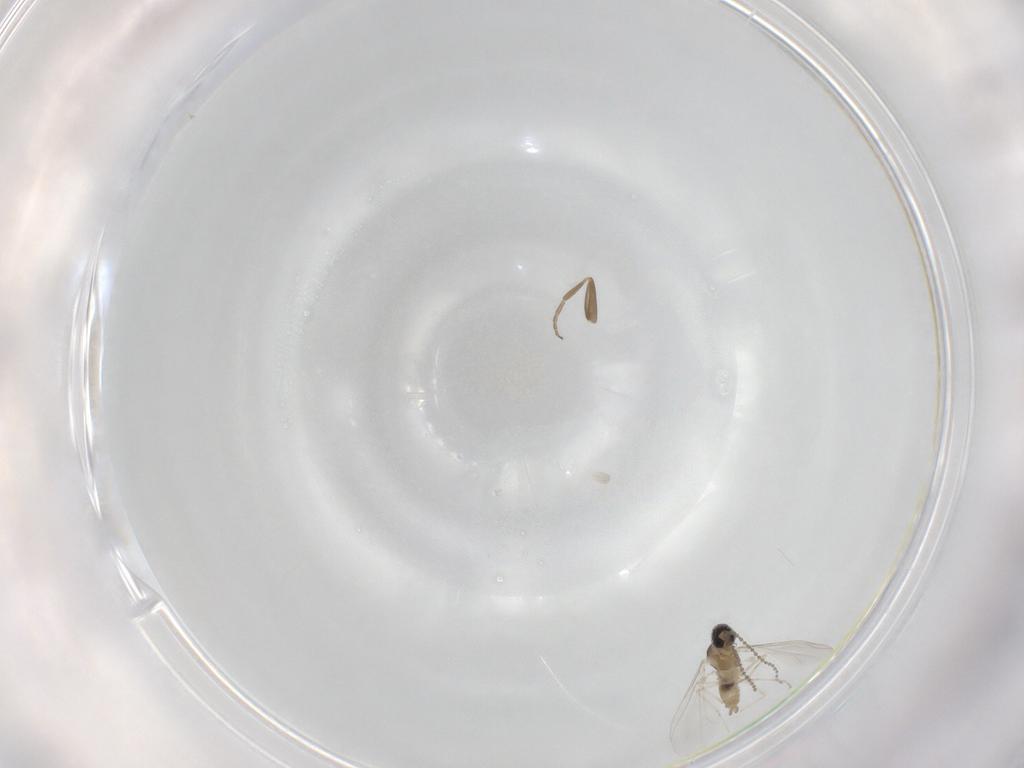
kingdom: Animalia
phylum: Arthropoda
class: Insecta
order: Diptera
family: Cecidomyiidae
